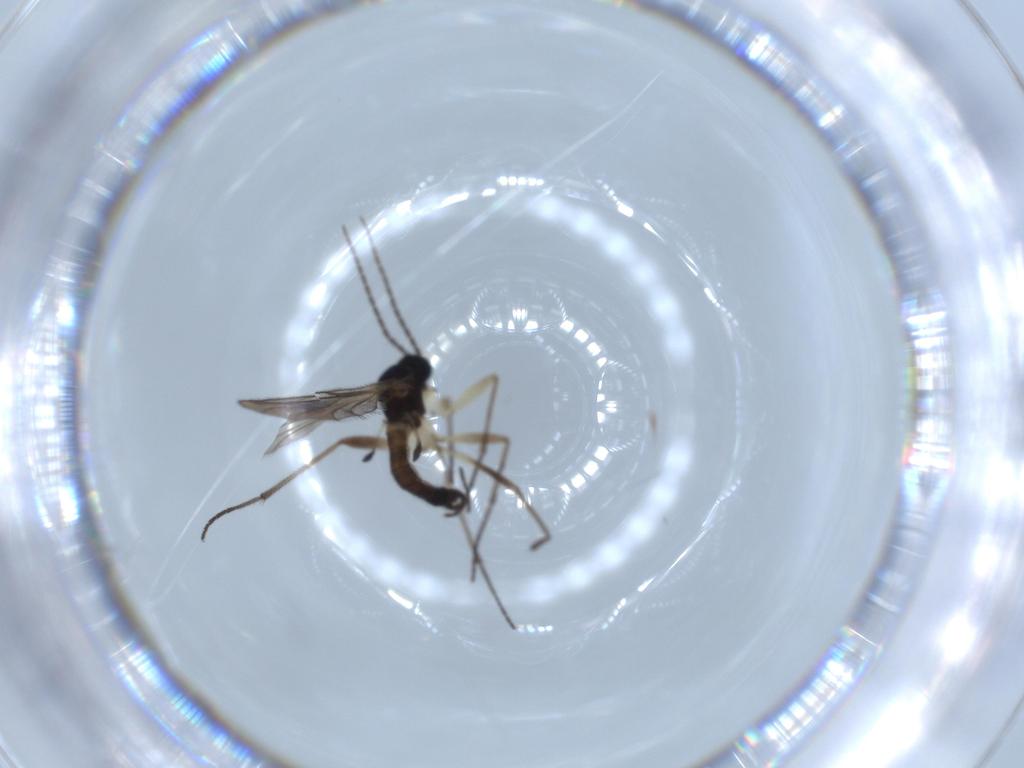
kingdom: Animalia
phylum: Arthropoda
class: Insecta
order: Diptera
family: Sciaridae
